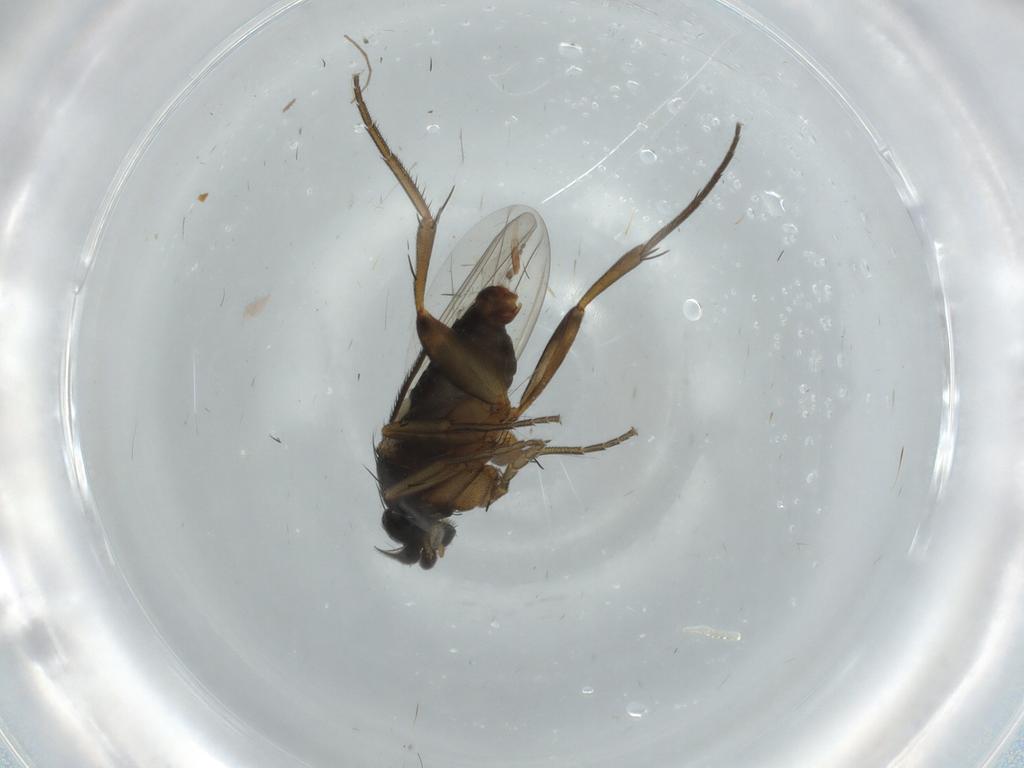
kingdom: Animalia
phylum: Arthropoda
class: Insecta
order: Diptera
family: Phoridae
